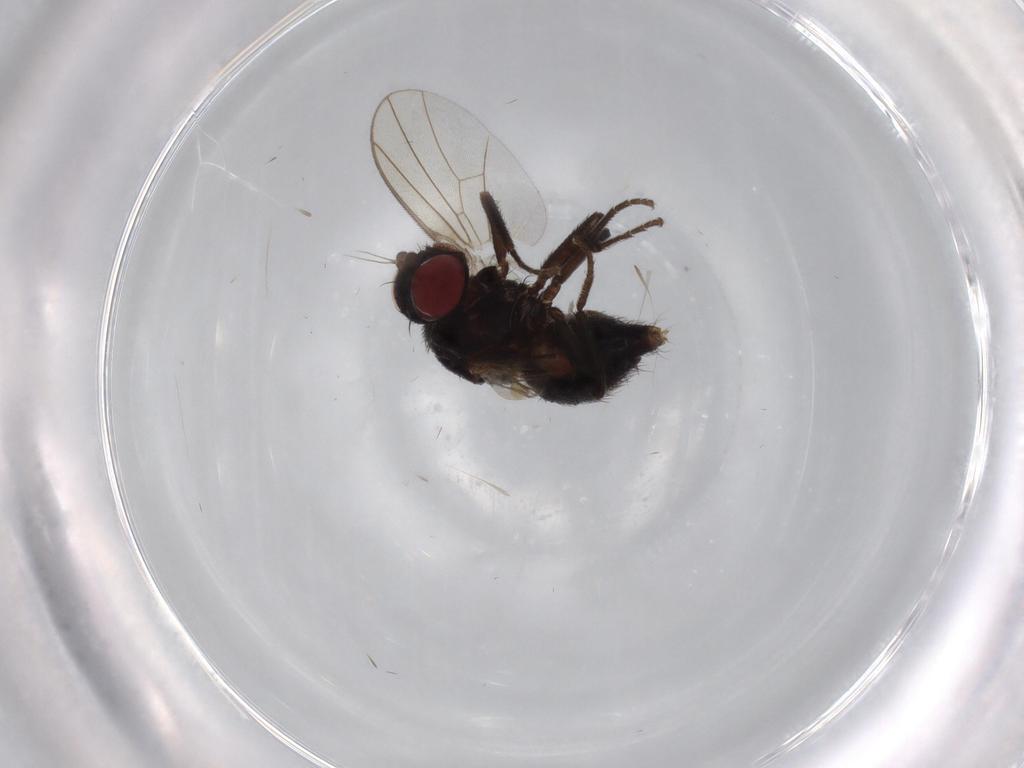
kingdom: Animalia
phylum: Arthropoda
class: Insecta
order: Diptera
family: Agromyzidae
